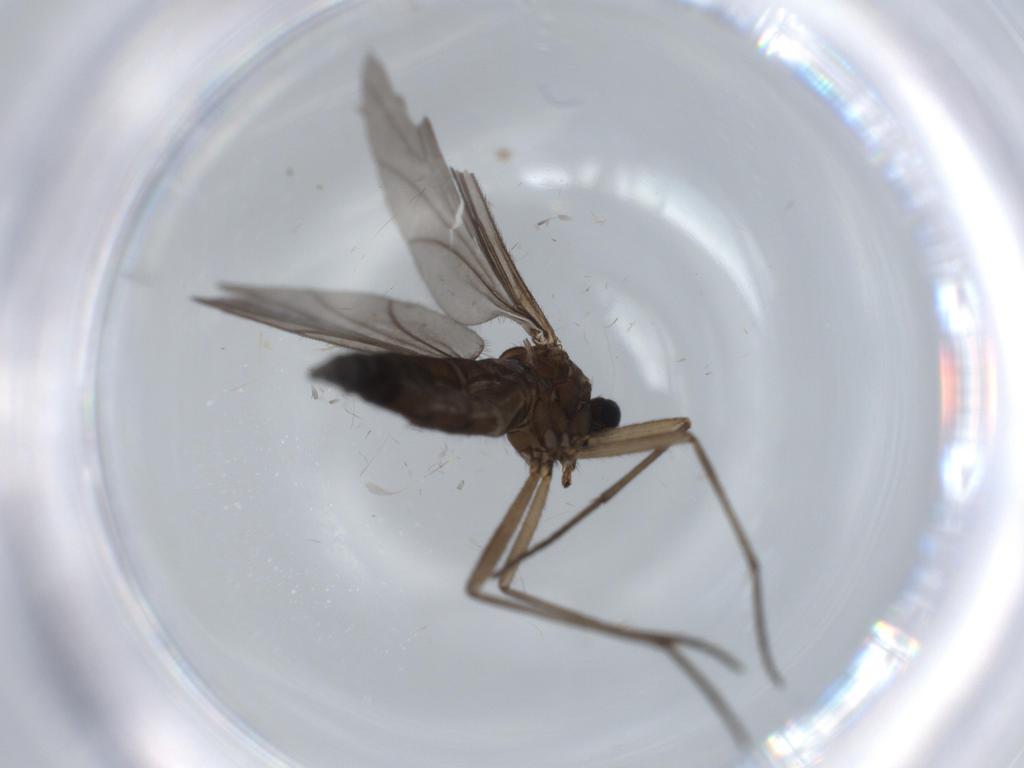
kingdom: Animalia
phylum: Arthropoda
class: Insecta
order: Diptera
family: Sciaridae
